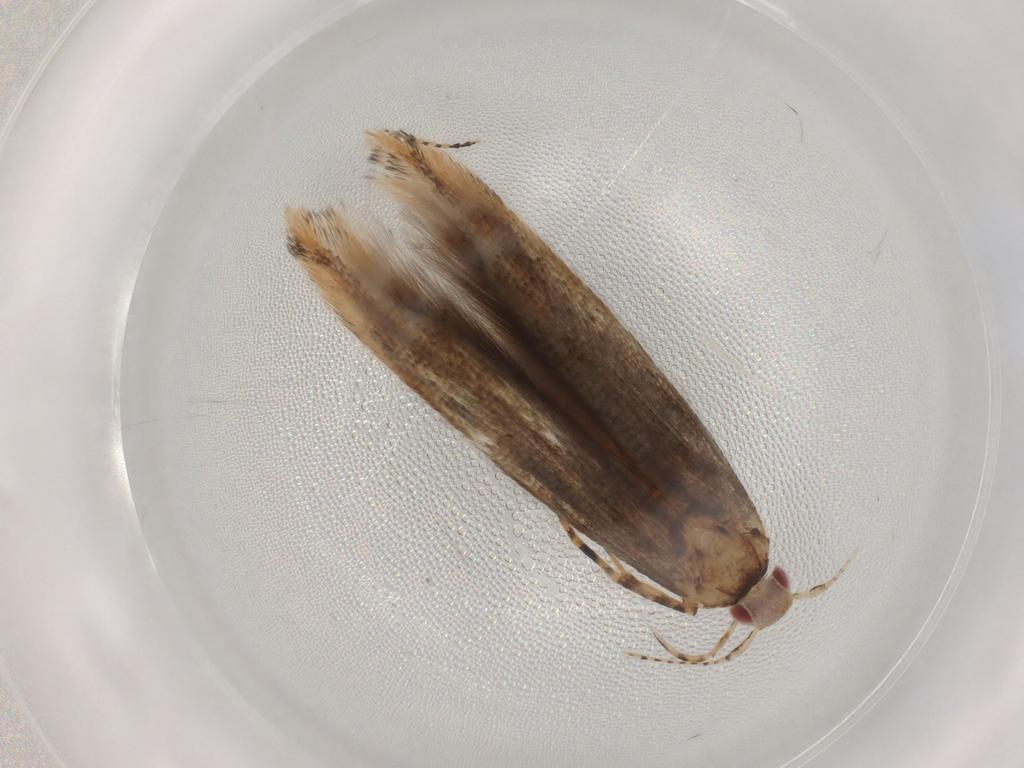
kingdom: Animalia
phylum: Arthropoda
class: Insecta
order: Lepidoptera
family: Cosmopterigidae
